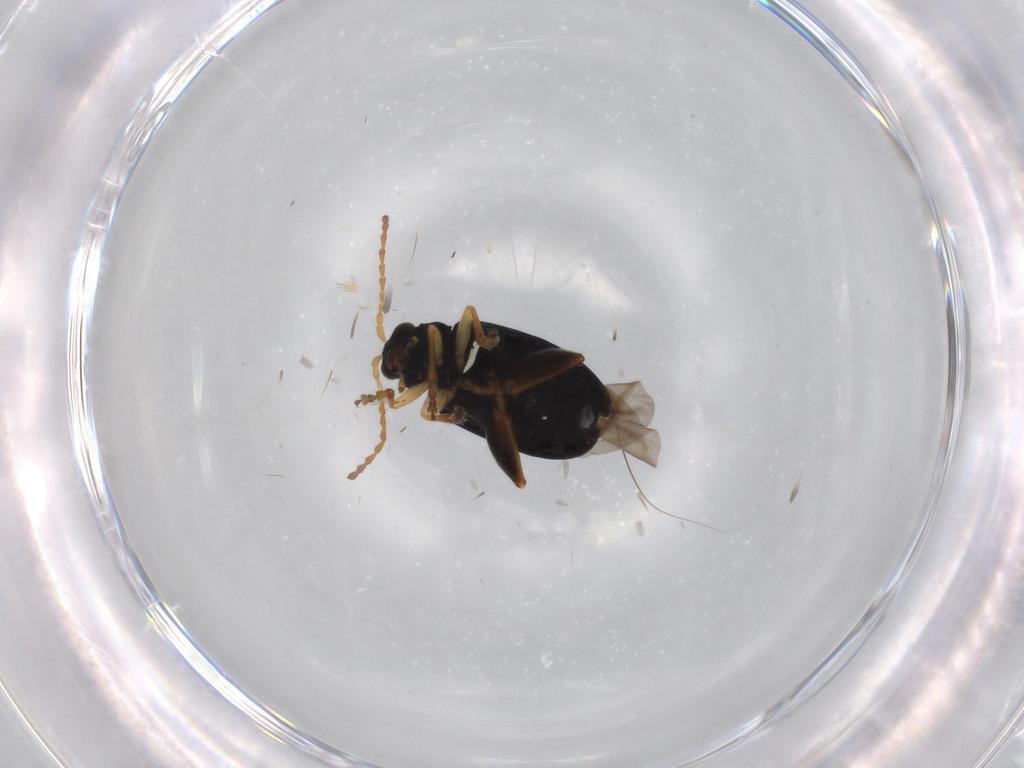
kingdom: Animalia
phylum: Arthropoda
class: Insecta
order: Coleoptera
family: Chrysomelidae
